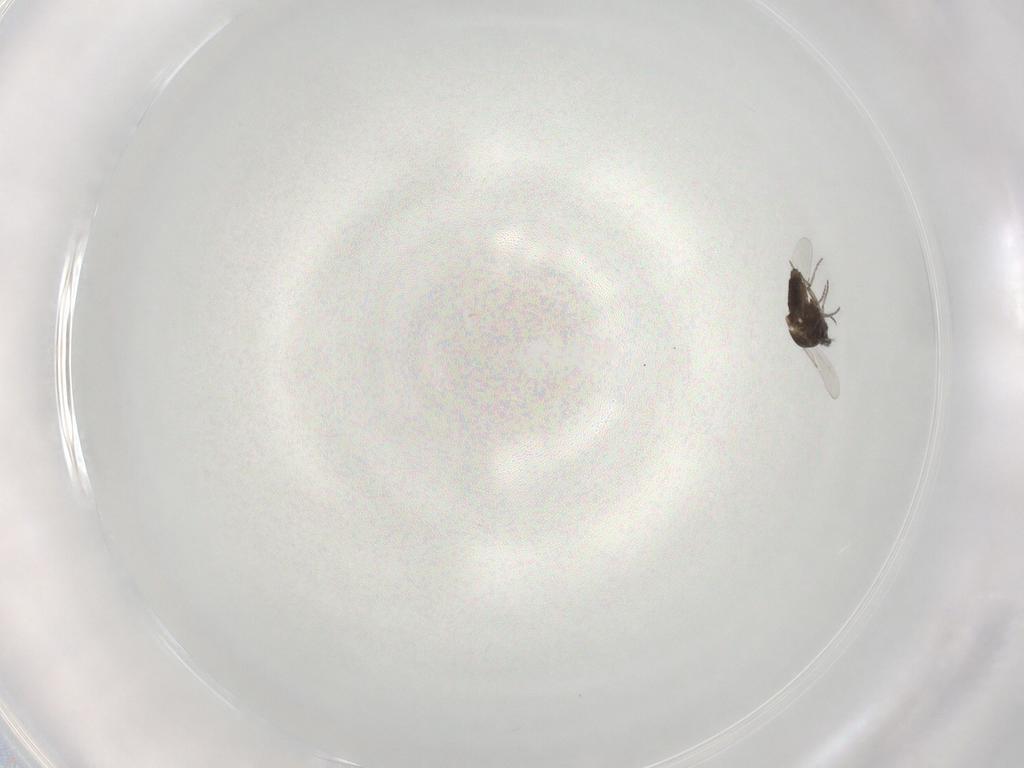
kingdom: Animalia
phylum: Arthropoda
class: Insecta
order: Diptera
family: Ceratopogonidae
